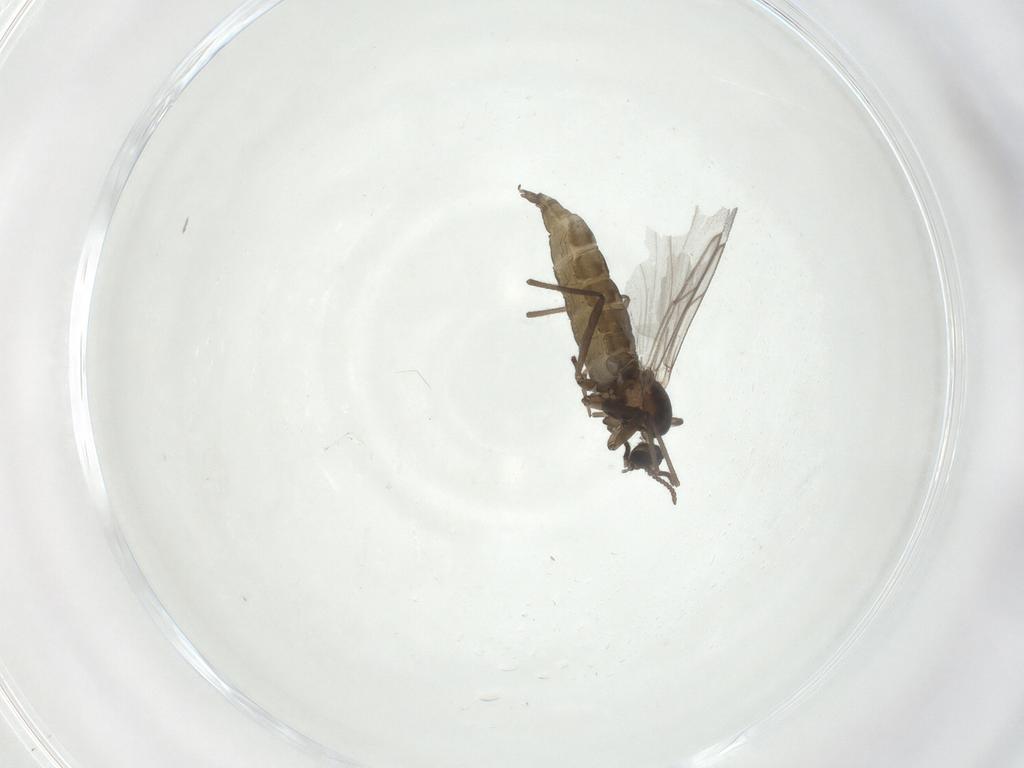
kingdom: Animalia
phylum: Arthropoda
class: Insecta
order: Diptera
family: Cecidomyiidae
